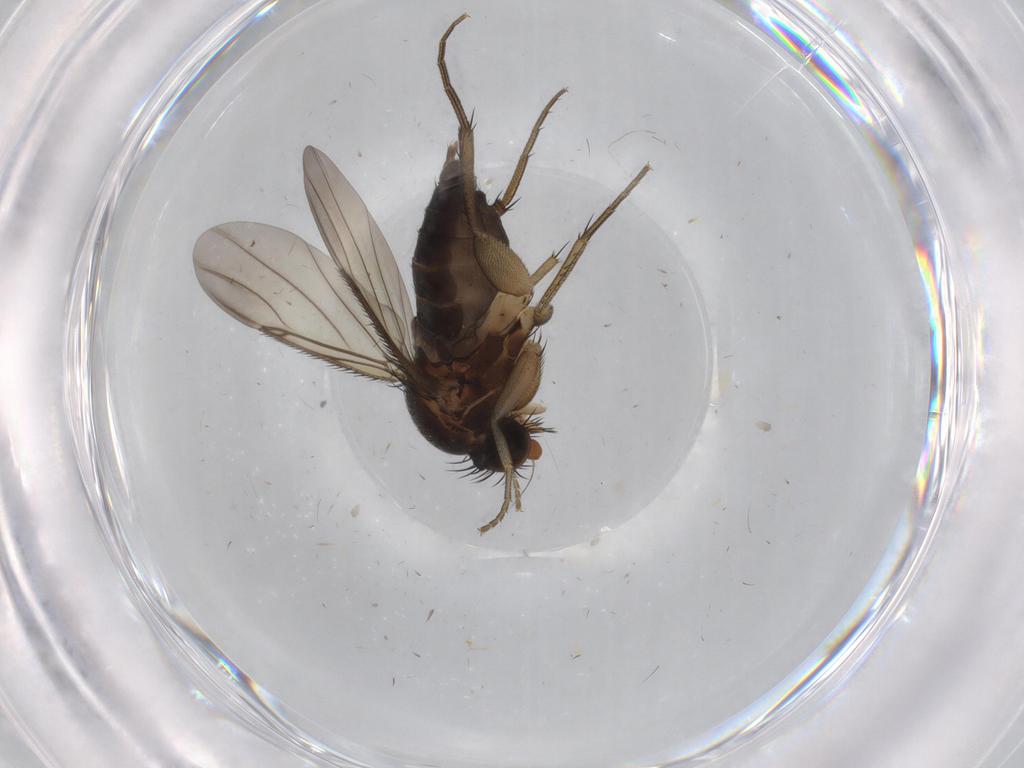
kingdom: Animalia
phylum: Arthropoda
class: Insecta
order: Diptera
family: Phoridae
